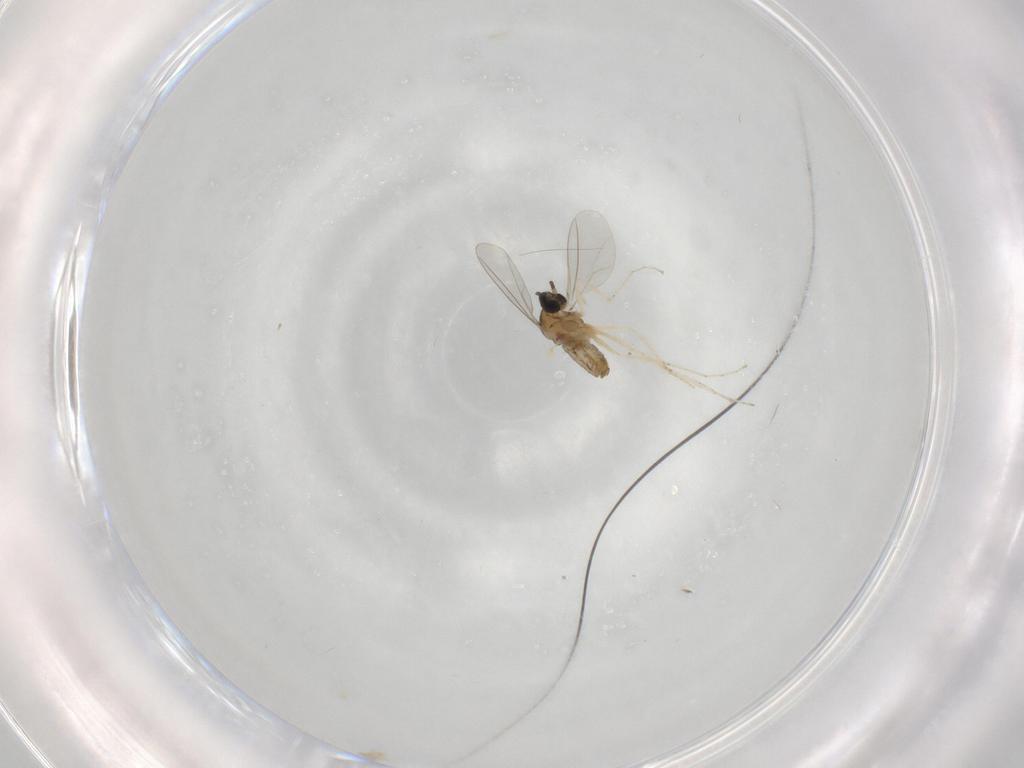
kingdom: Animalia
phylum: Arthropoda
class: Insecta
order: Diptera
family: Cecidomyiidae
